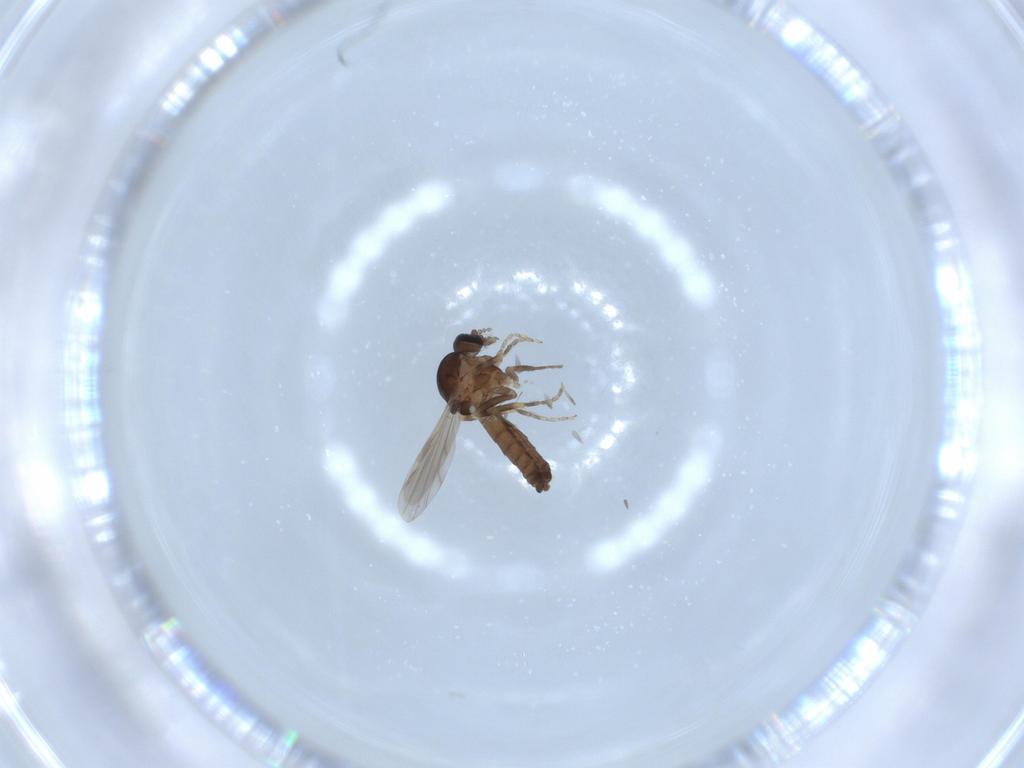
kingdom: Animalia
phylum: Arthropoda
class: Insecta
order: Diptera
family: Ceratopogonidae
